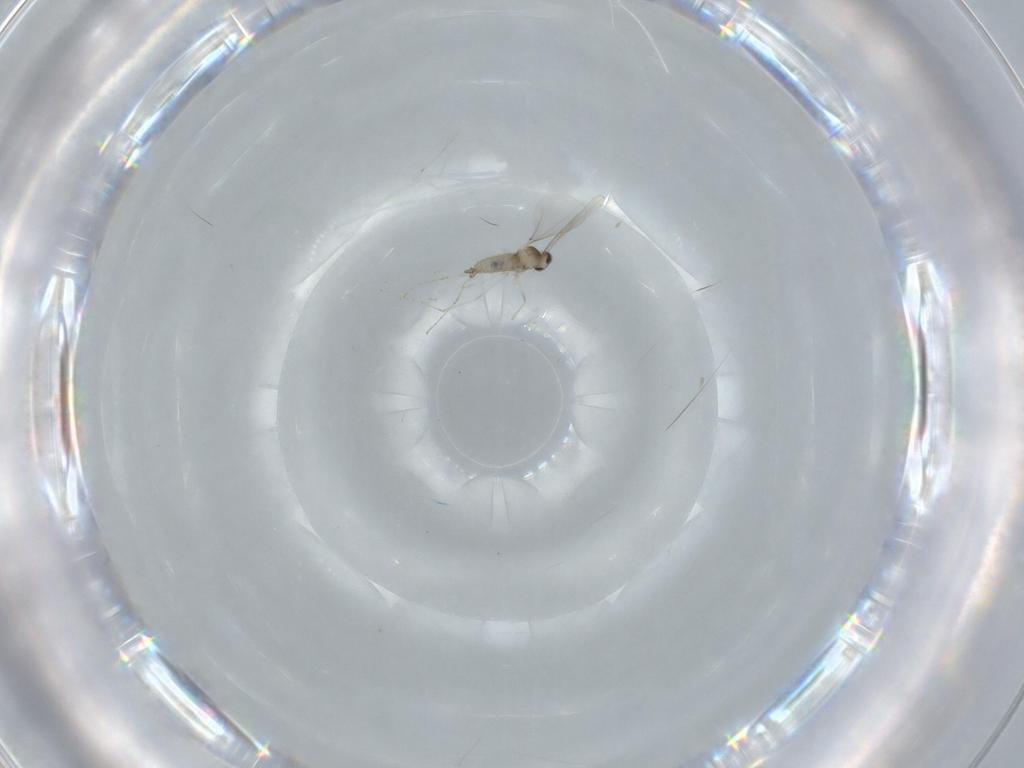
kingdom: Animalia
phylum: Arthropoda
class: Insecta
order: Diptera
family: Cecidomyiidae
